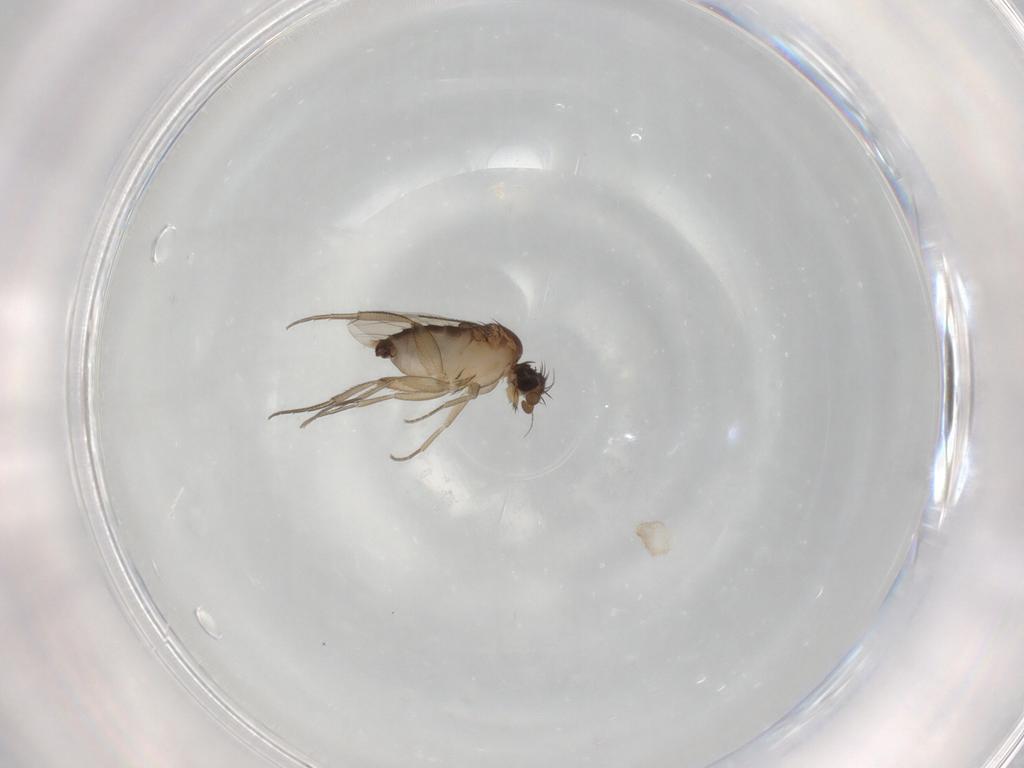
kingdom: Animalia
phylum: Arthropoda
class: Insecta
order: Diptera
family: Phoridae
